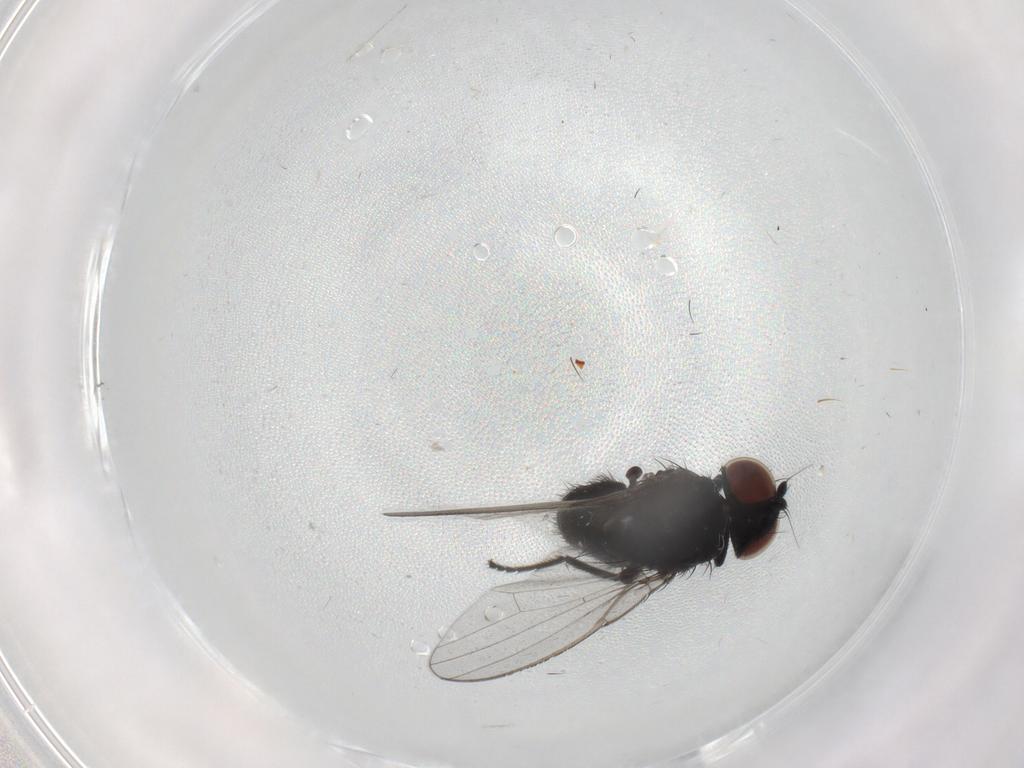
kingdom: Animalia
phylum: Arthropoda
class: Insecta
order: Diptera
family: Milichiidae
